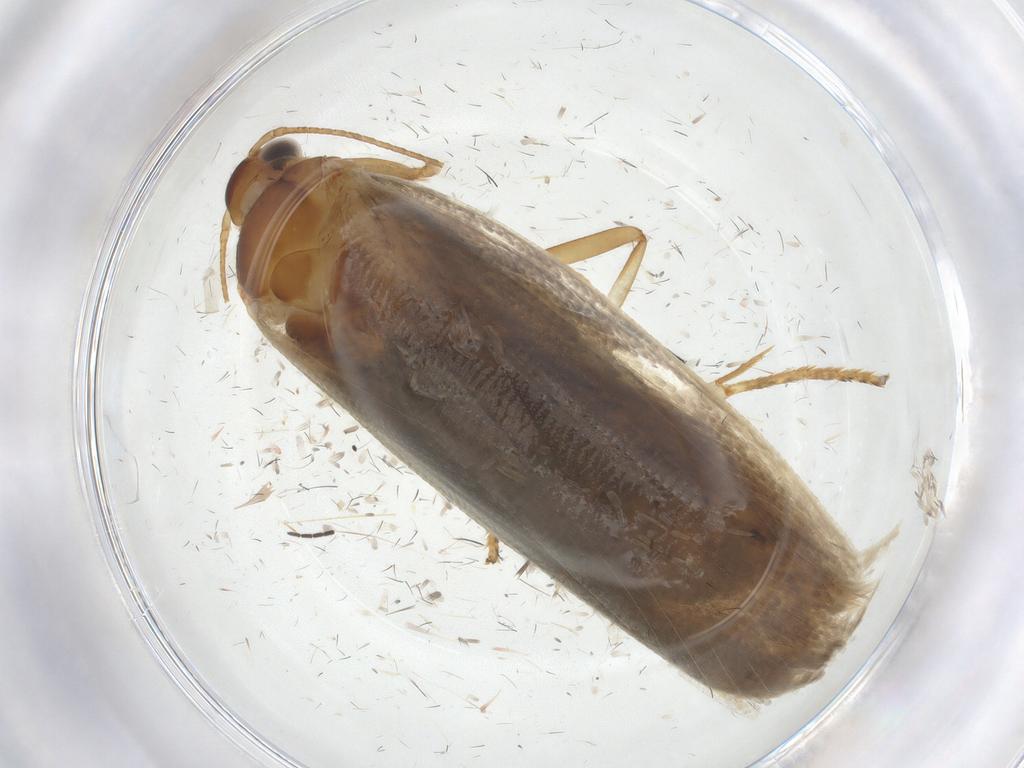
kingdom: Animalia
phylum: Arthropoda
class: Insecta
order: Lepidoptera
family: Oecophoridae
